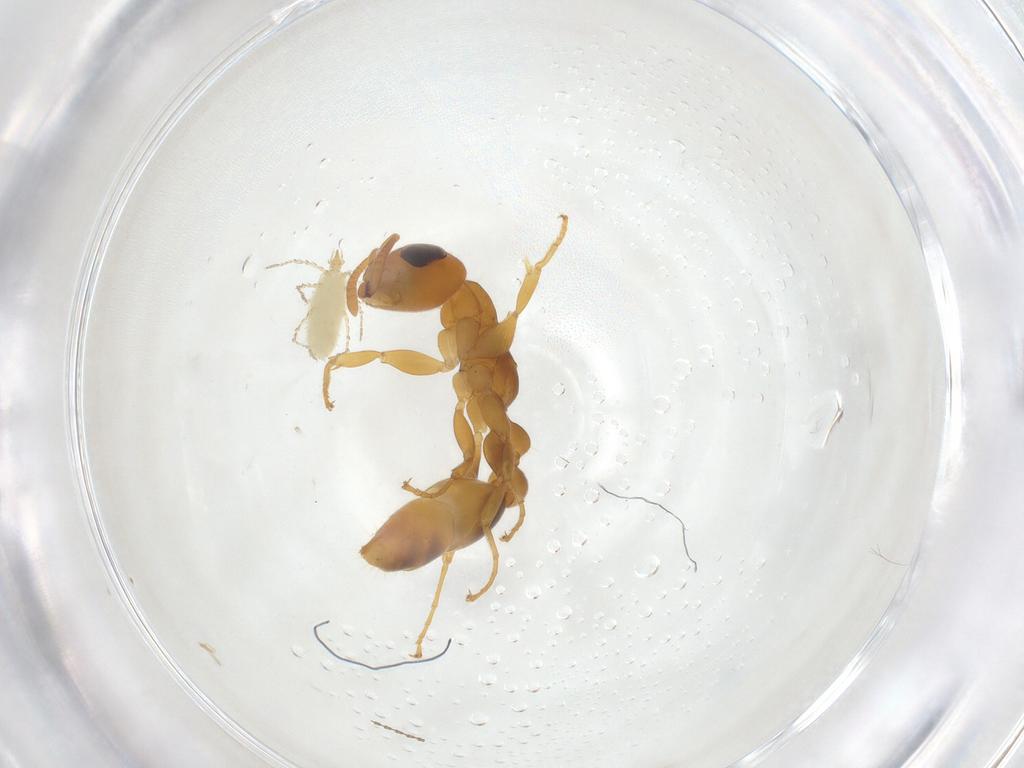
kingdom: Animalia
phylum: Arthropoda
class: Insecta
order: Hymenoptera
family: Formicidae
